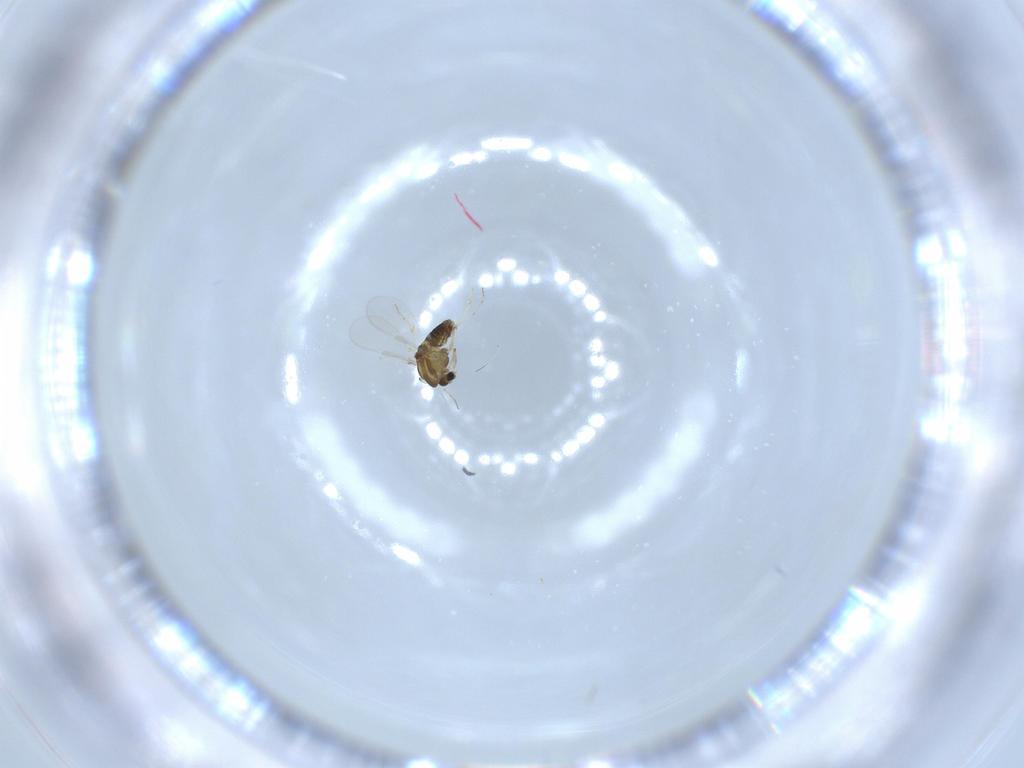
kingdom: Animalia
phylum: Arthropoda
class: Insecta
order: Diptera
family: Chironomidae
